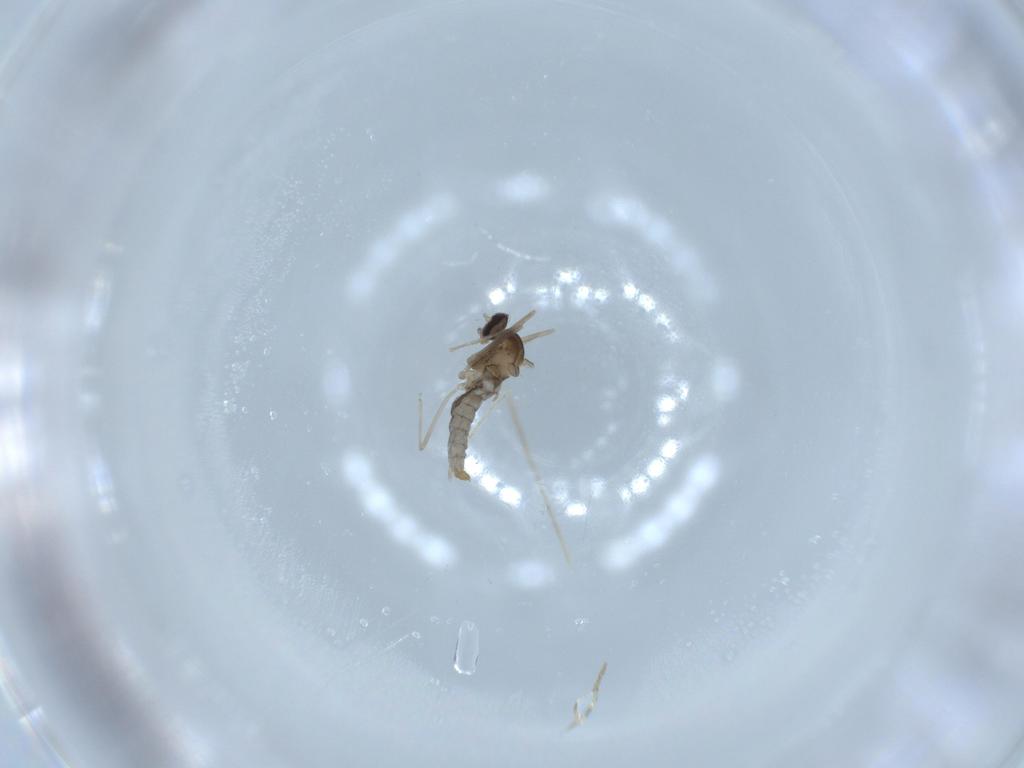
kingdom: Animalia
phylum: Arthropoda
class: Insecta
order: Diptera
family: Cecidomyiidae
